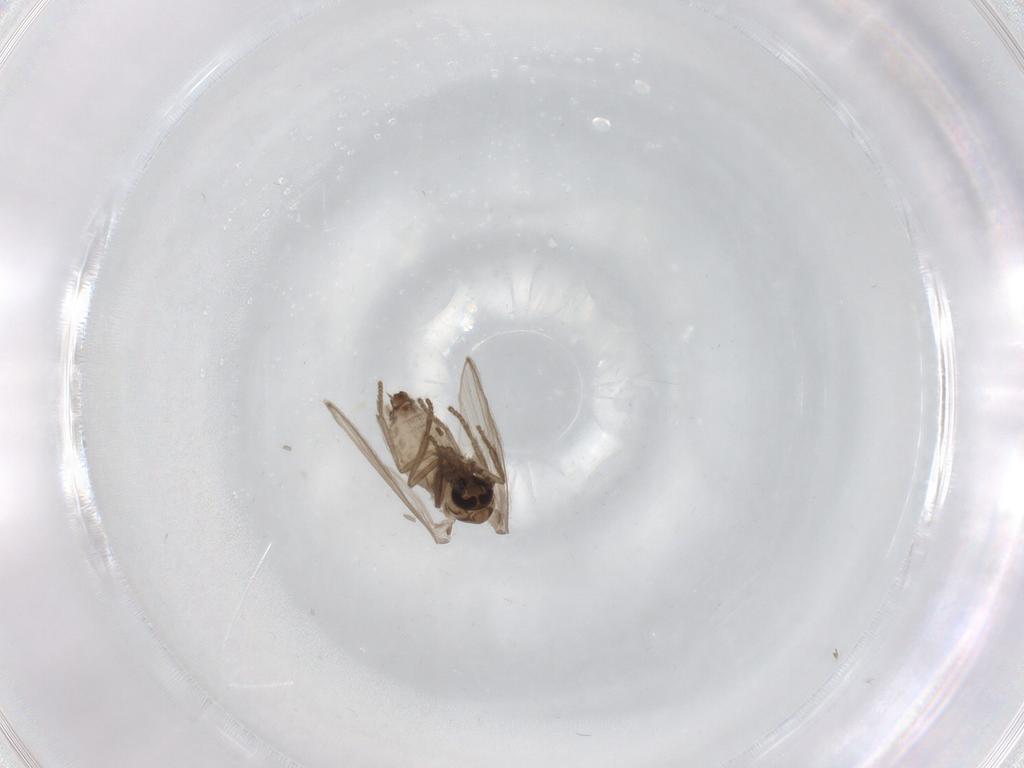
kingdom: Animalia
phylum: Arthropoda
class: Insecta
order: Diptera
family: Psychodidae
